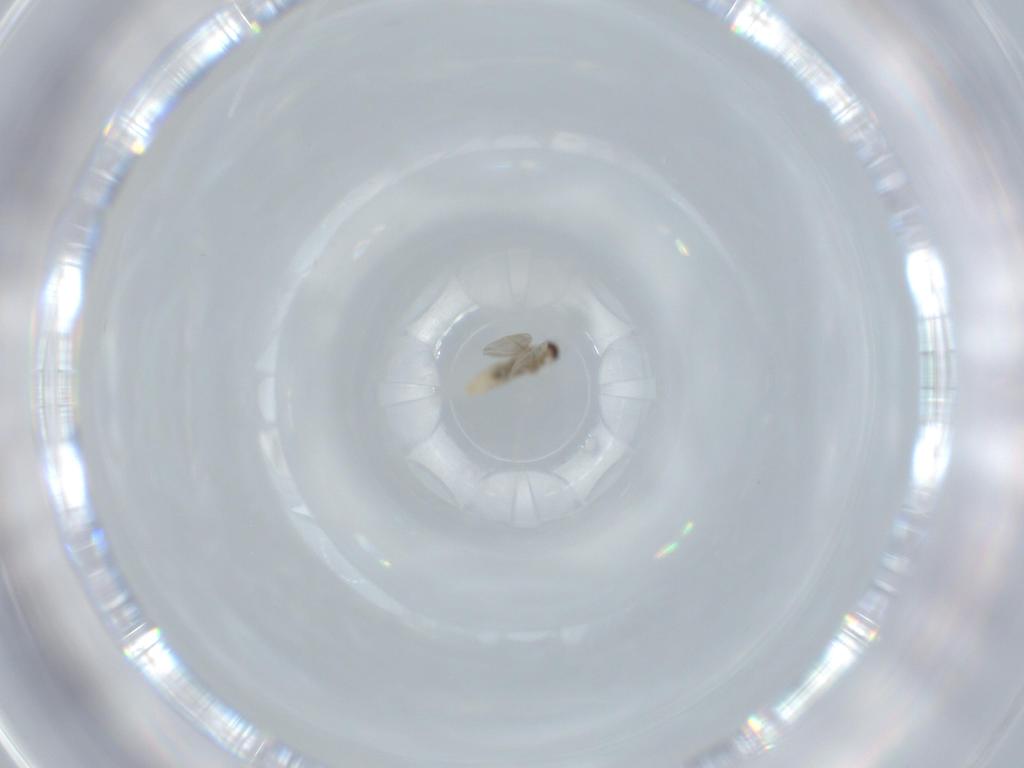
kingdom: Animalia
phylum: Arthropoda
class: Insecta
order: Diptera
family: Cecidomyiidae
